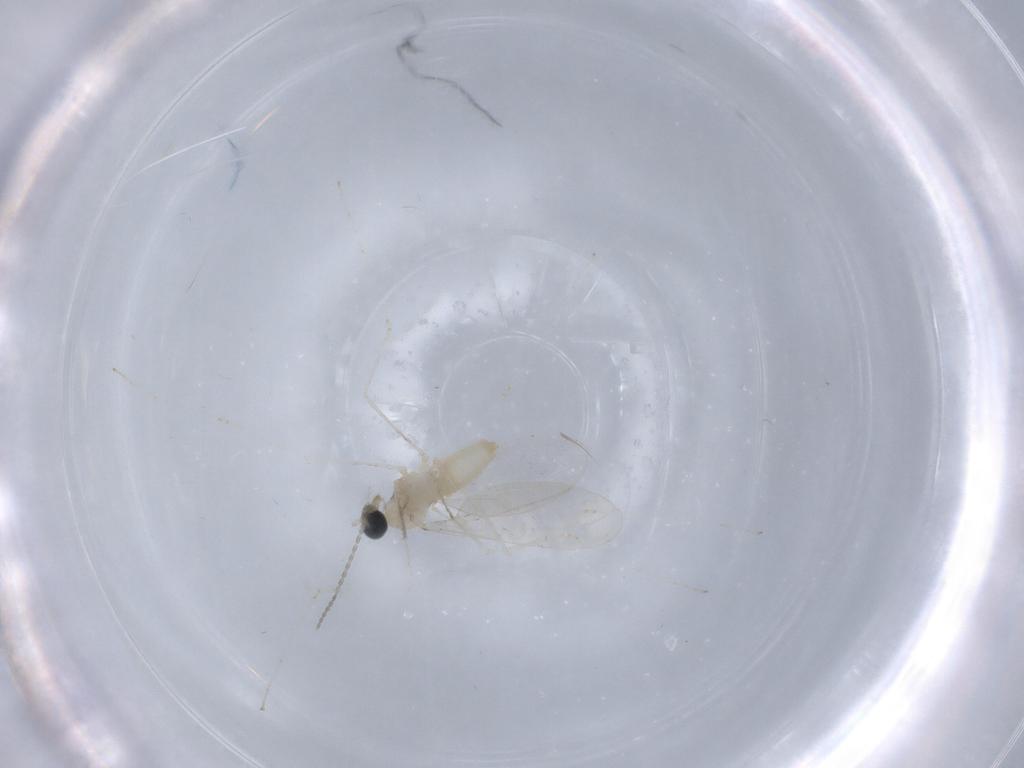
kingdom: Animalia
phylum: Arthropoda
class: Insecta
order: Diptera
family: Cecidomyiidae
